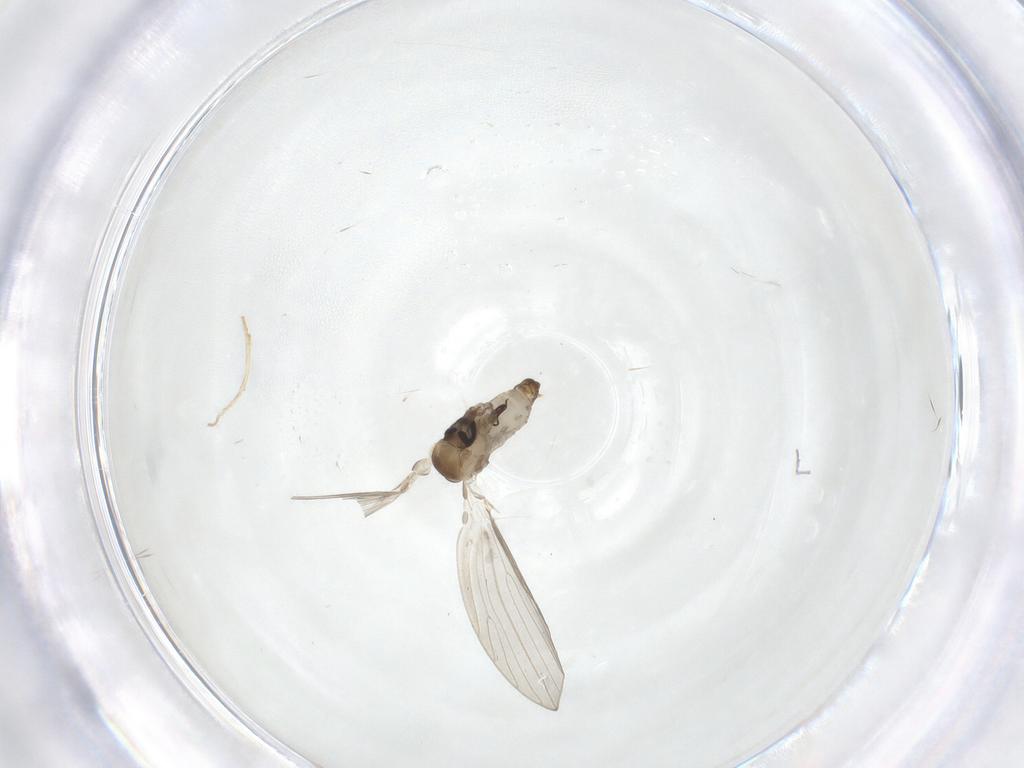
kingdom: Animalia
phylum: Arthropoda
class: Insecta
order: Diptera
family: Psychodidae
